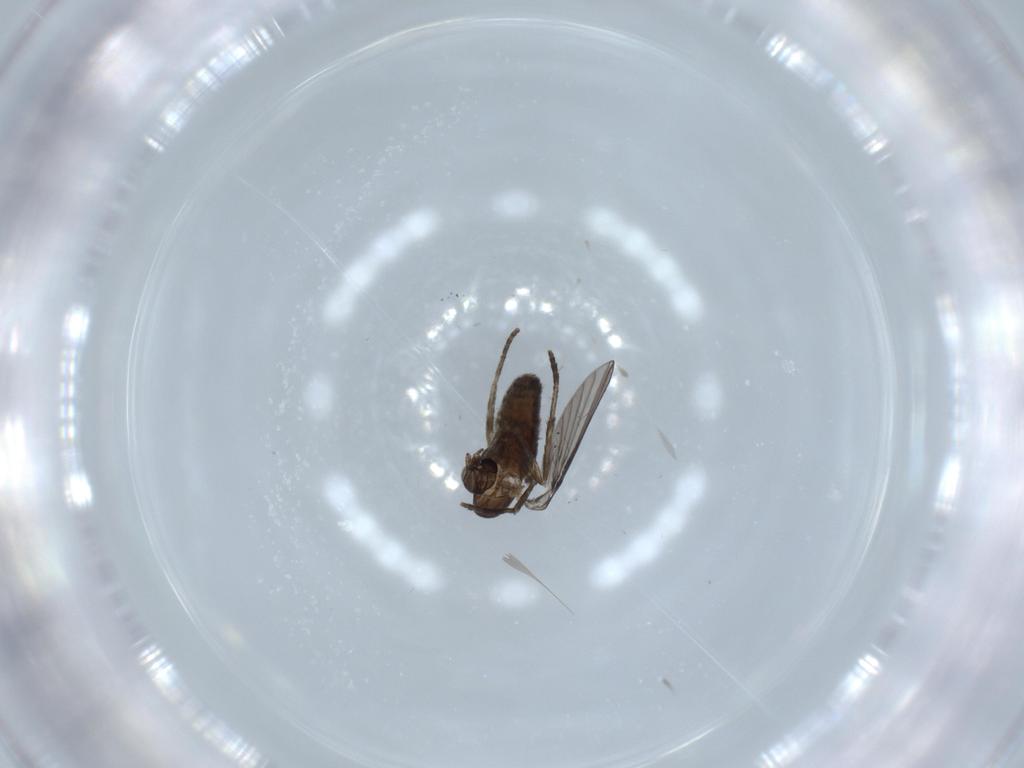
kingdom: Animalia
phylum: Arthropoda
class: Insecta
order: Diptera
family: Psychodidae
